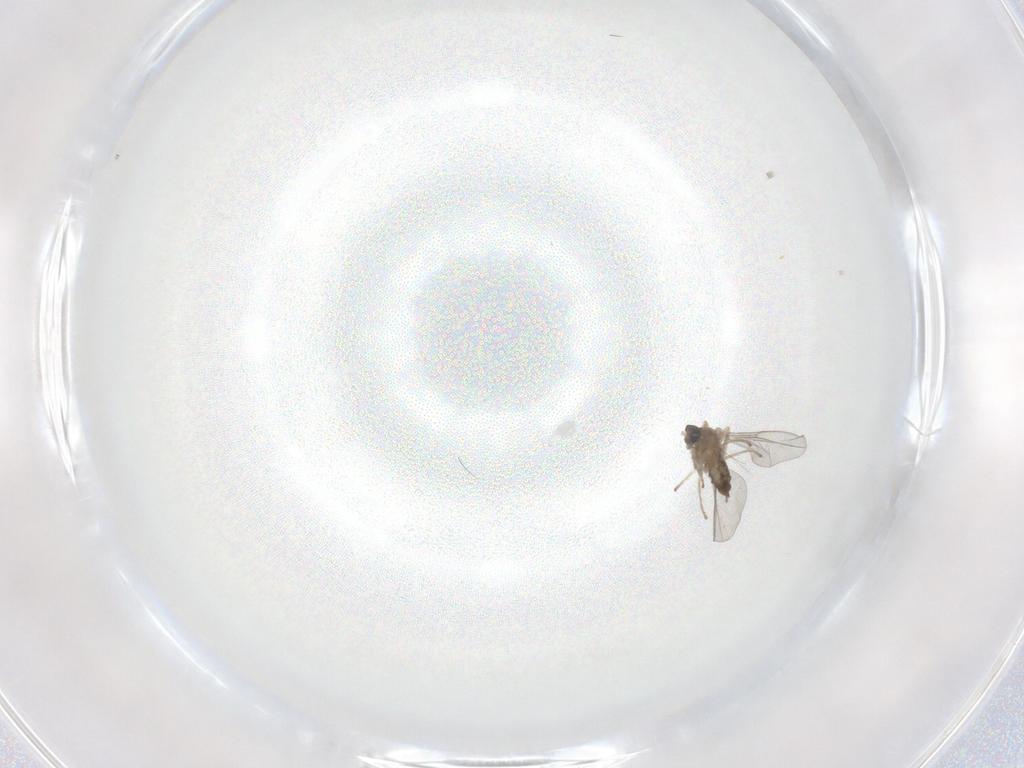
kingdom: Animalia
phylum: Arthropoda
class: Insecta
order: Diptera
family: Cecidomyiidae
